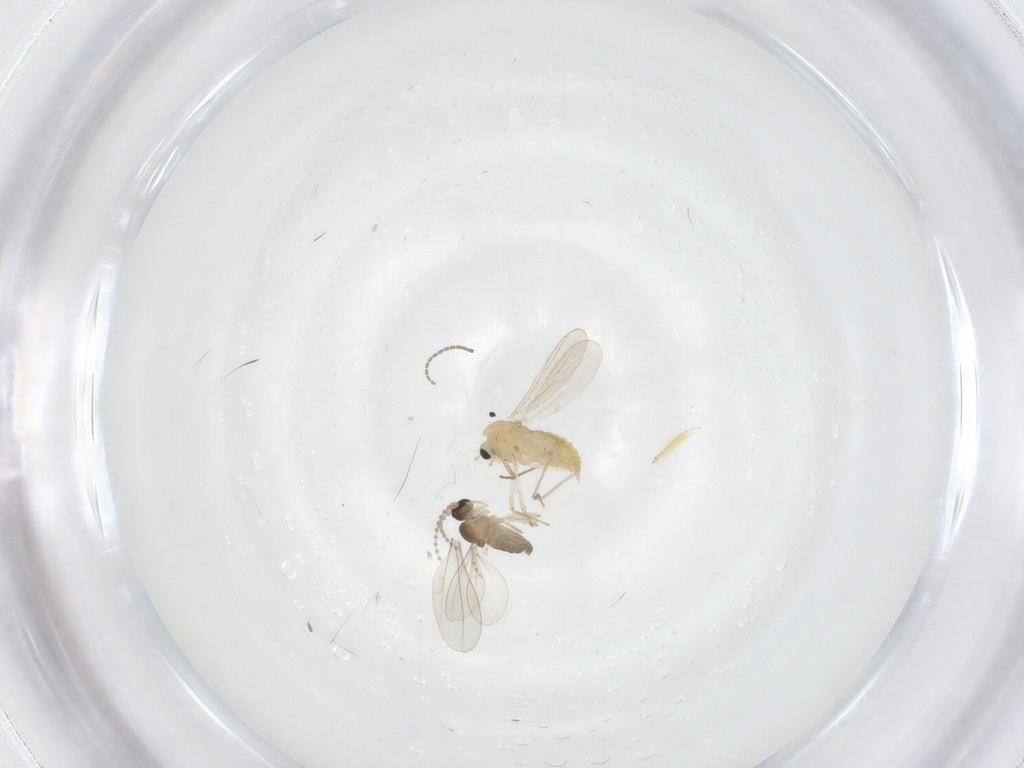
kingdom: Animalia
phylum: Arthropoda
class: Insecta
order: Diptera
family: Cecidomyiidae
